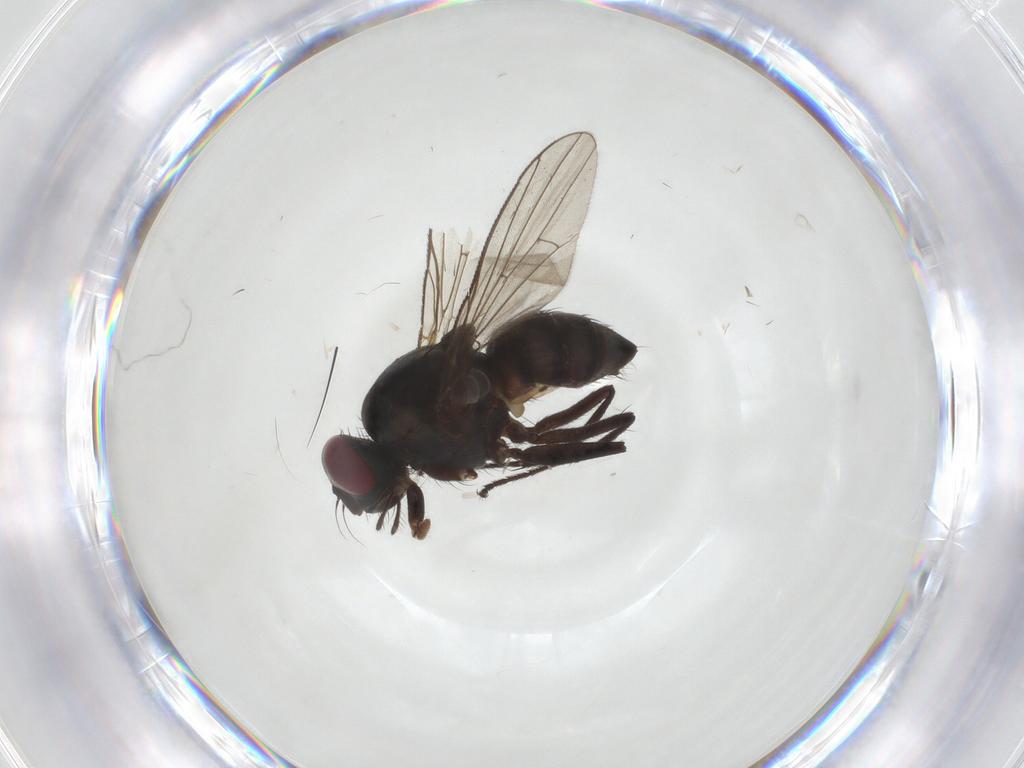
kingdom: Animalia
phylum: Arthropoda
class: Insecta
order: Diptera
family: Muscidae
